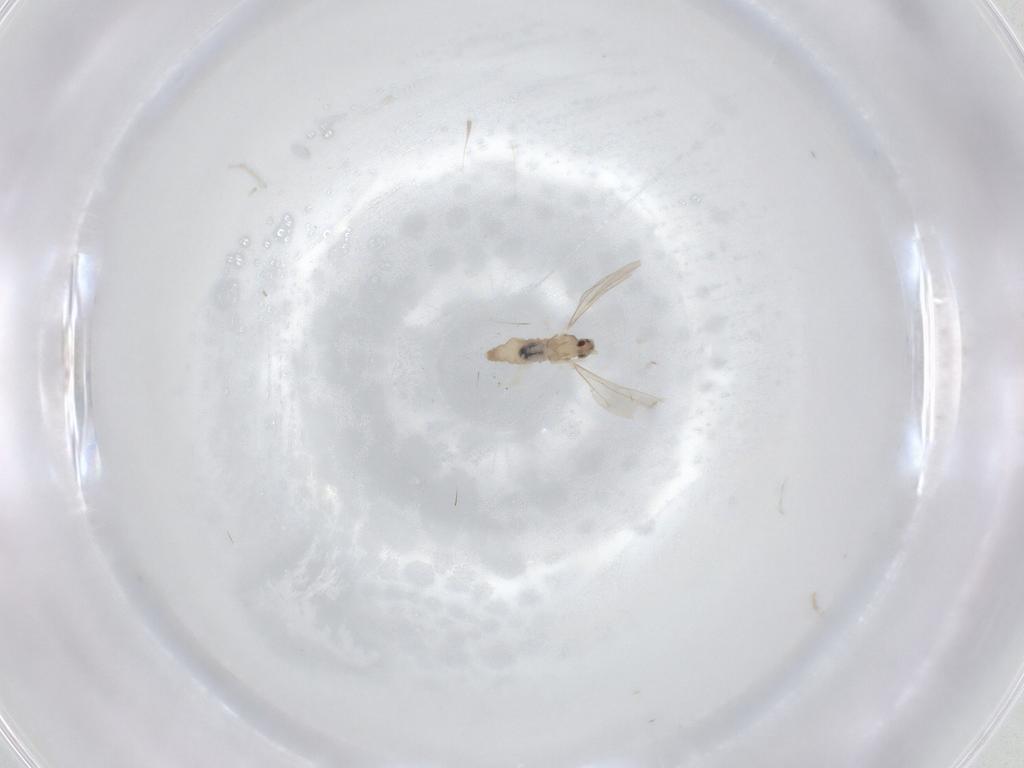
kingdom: Animalia
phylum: Arthropoda
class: Insecta
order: Diptera
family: Cecidomyiidae
